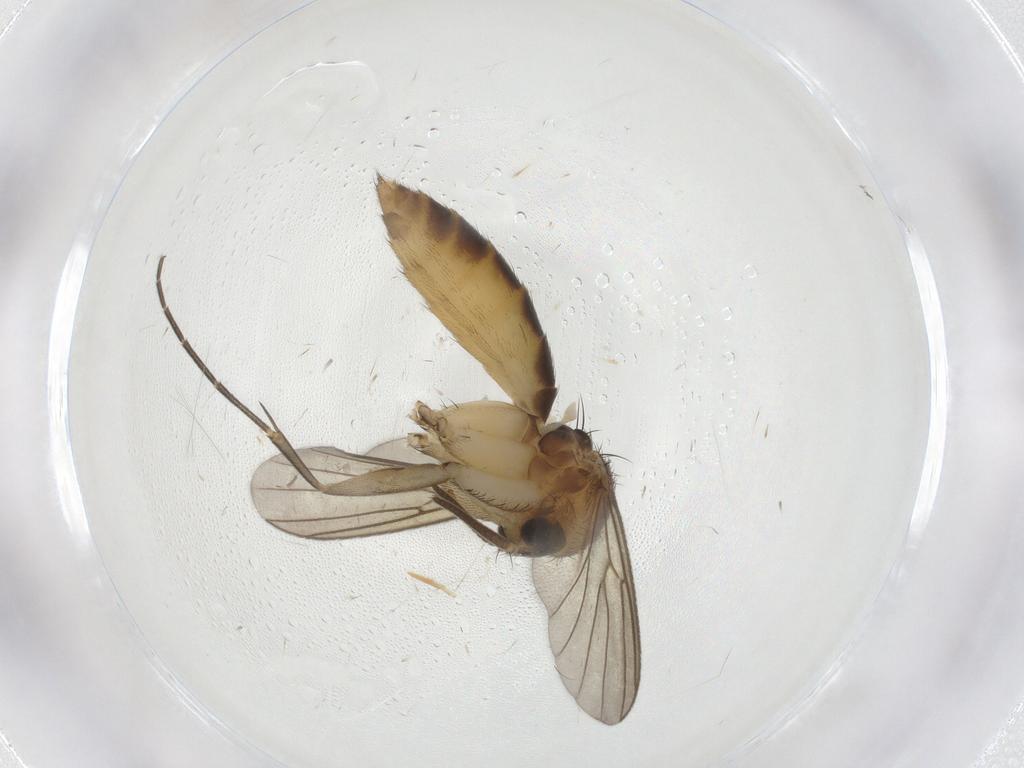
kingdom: Animalia
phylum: Arthropoda
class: Insecta
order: Diptera
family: Mycetophilidae
